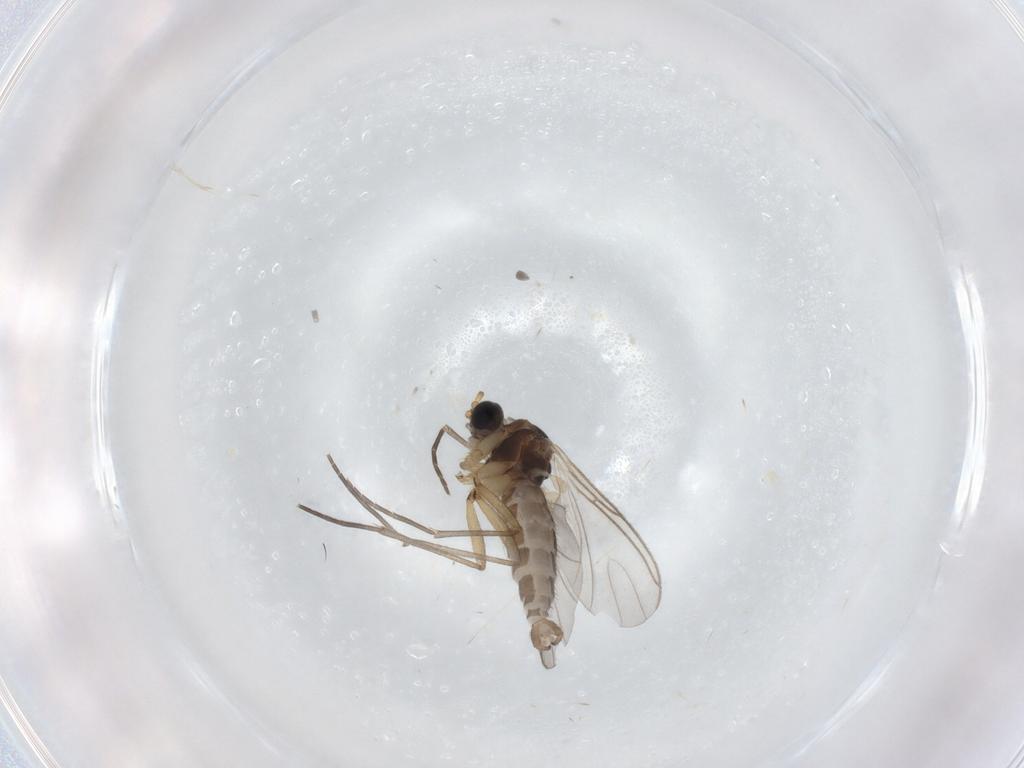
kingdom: Animalia
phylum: Arthropoda
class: Insecta
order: Diptera
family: Sciaridae
